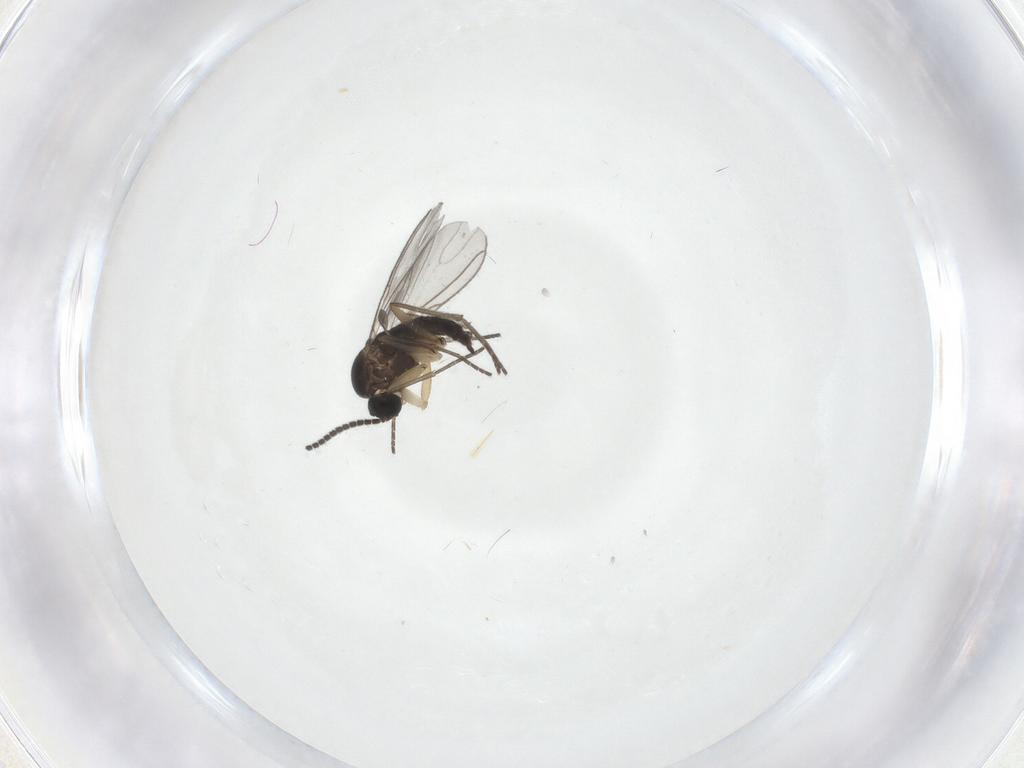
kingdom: Animalia
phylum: Arthropoda
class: Insecta
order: Diptera
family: Sciaridae
